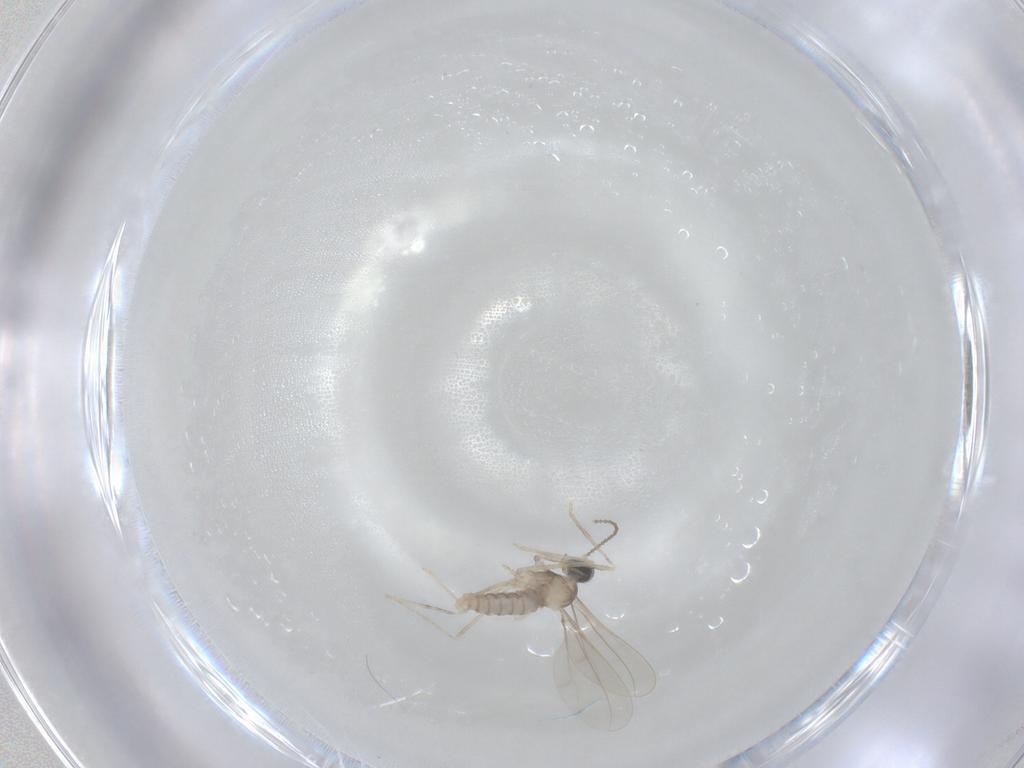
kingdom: Animalia
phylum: Arthropoda
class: Insecta
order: Diptera
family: Cecidomyiidae
